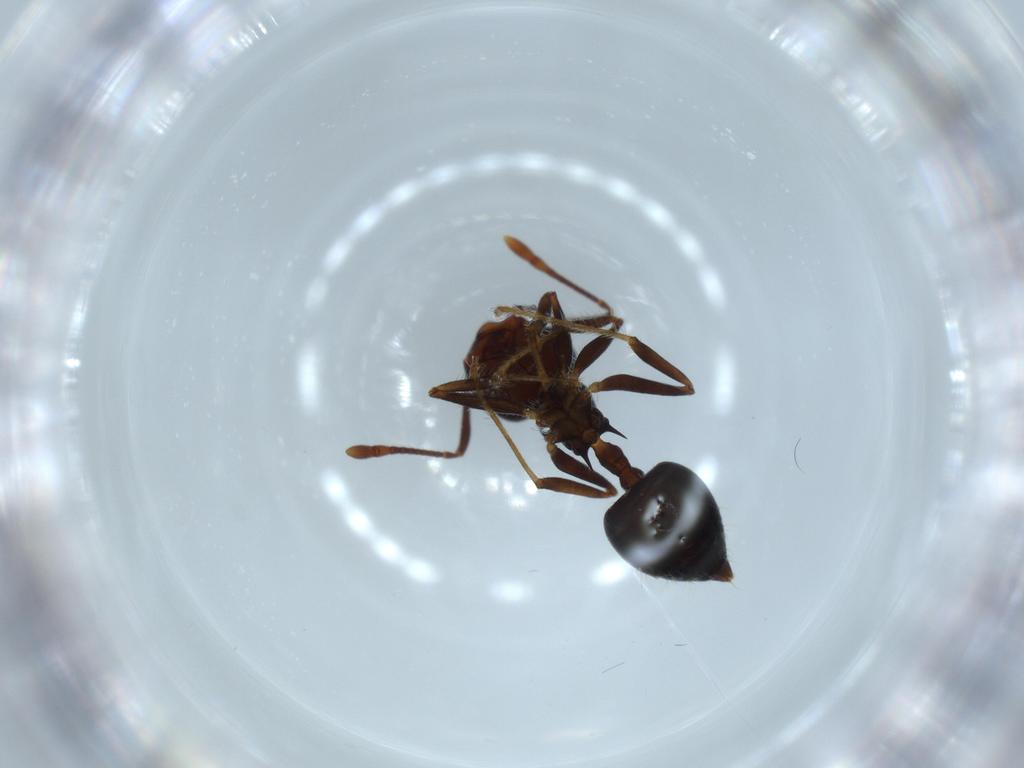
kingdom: Animalia
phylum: Arthropoda
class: Insecta
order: Hymenoptera
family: Formicidae
